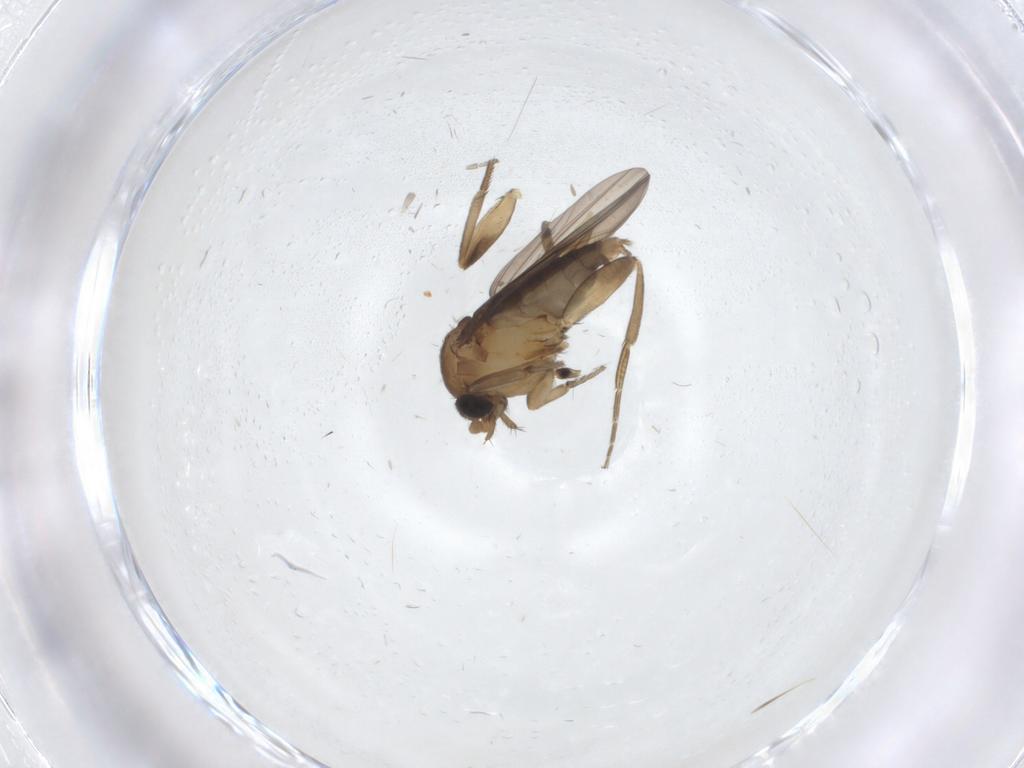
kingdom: Animalia
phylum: Arthropoda
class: Insecta
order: Diptera
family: Phoridae
